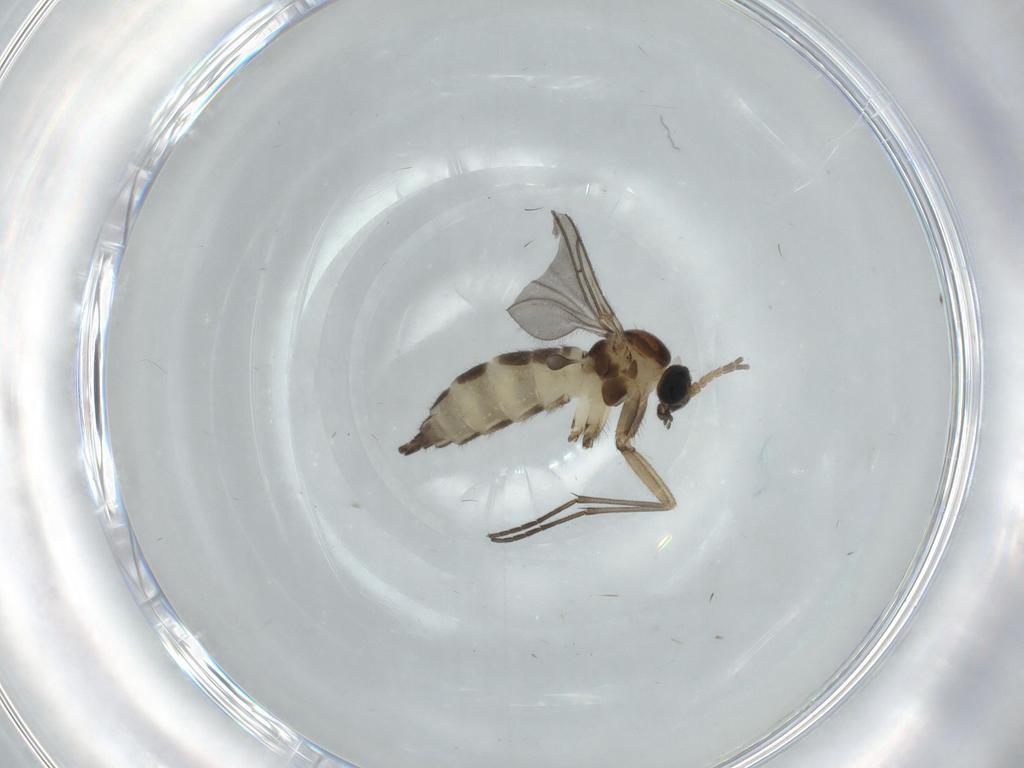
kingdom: Animalia
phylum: Arthropoda
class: Insecta
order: Diptera
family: Sciaridae
